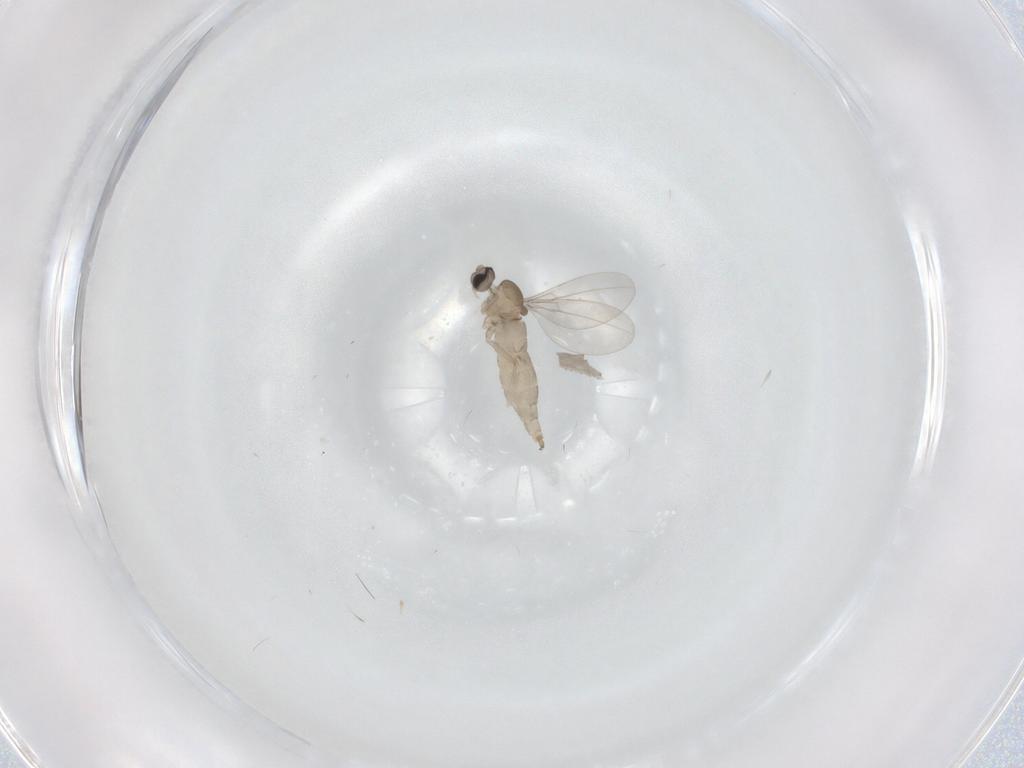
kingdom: Animalia
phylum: Arthropoda
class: Insecta
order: Diptera
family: Cecidomyiidae
